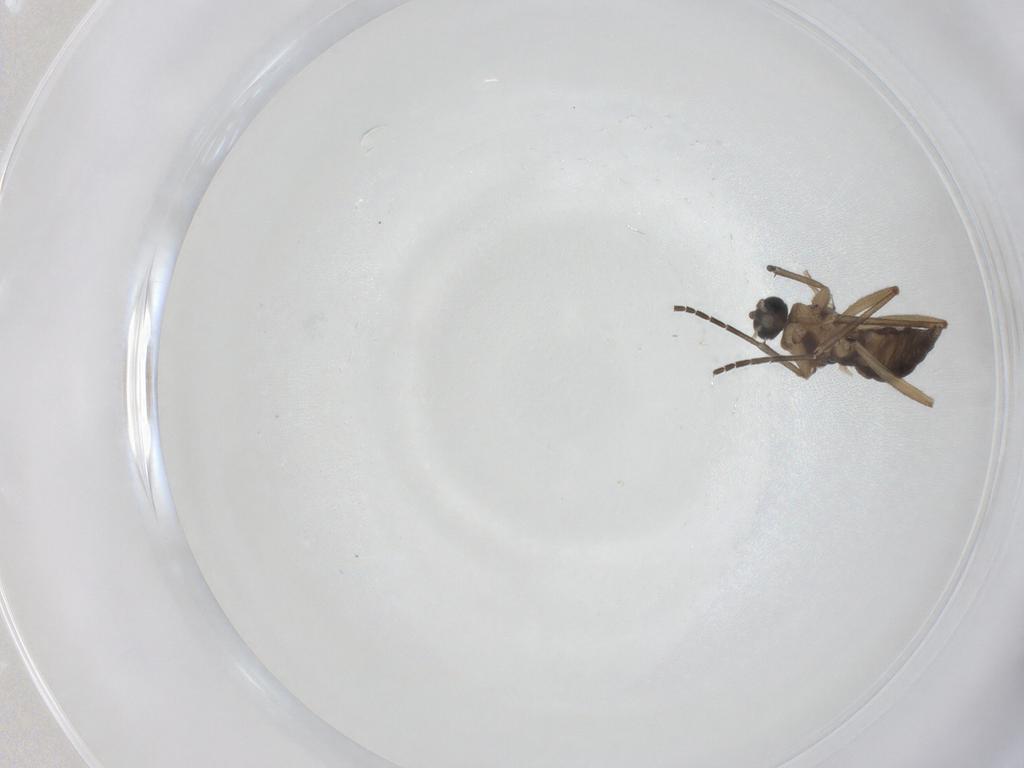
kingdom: Animalia
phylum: Arthropoda
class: Insecta
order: Diptera
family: Sciaridae
